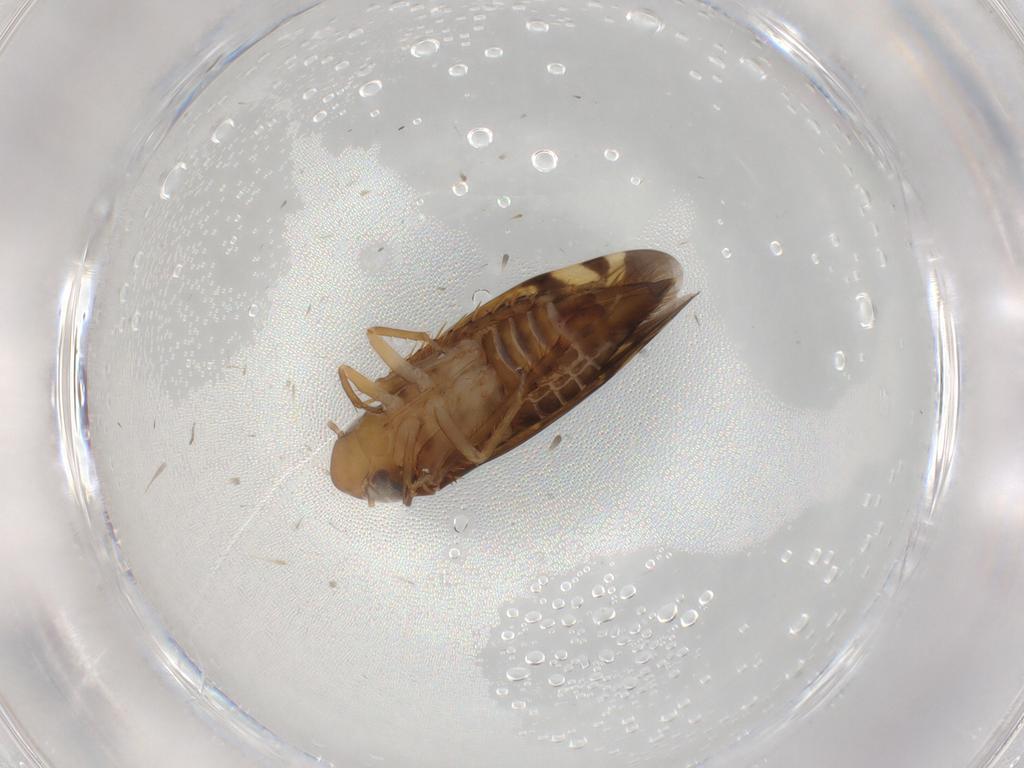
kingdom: Animalia
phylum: Arthropoda
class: Insecta
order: Hemiptera
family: Cicadellidae
